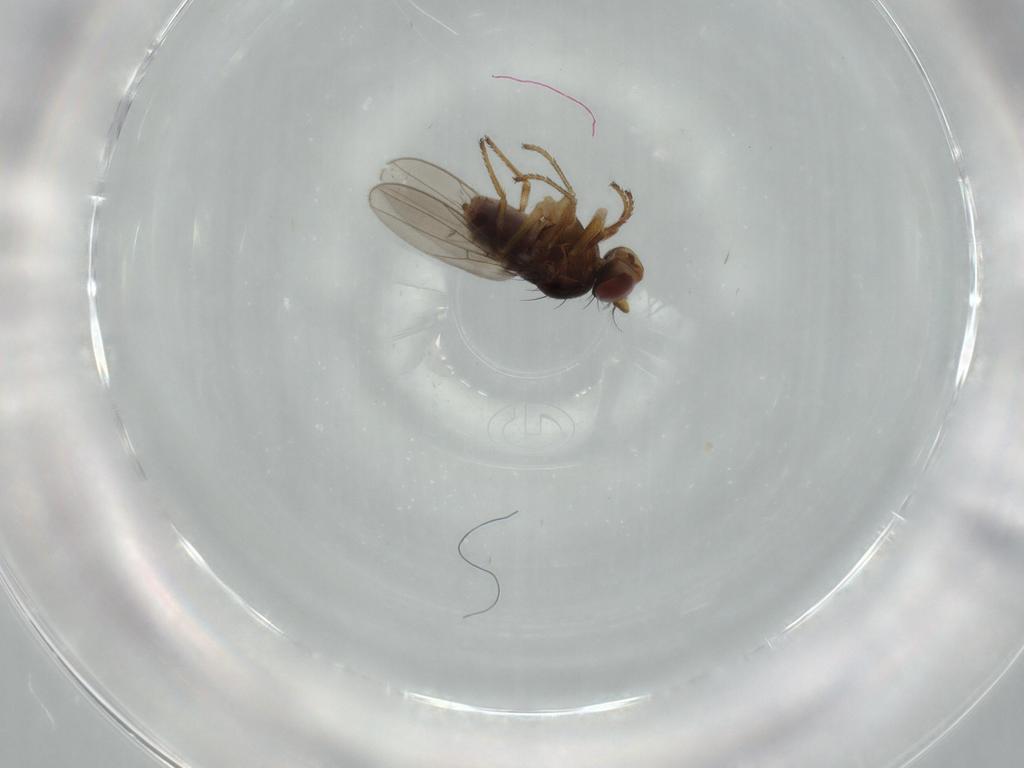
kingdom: Animalia
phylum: Arthropoda
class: Insecta
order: Diptera
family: Ephydridae
